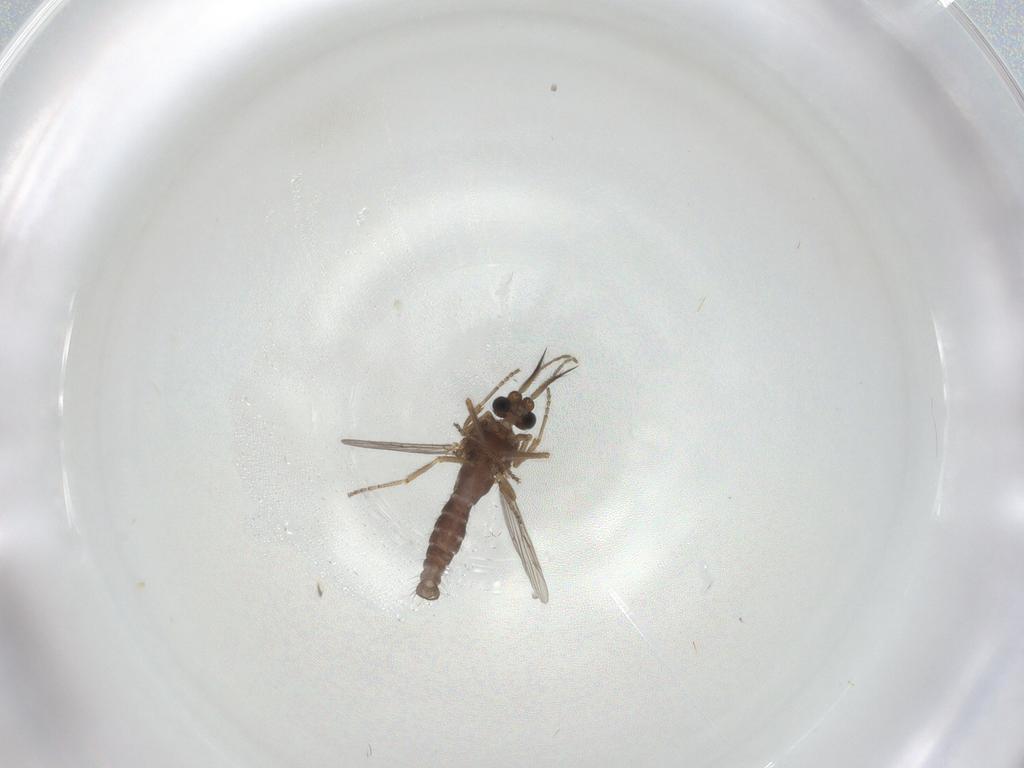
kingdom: Animalia
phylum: Arthropoda
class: Insecta
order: Diptera
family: Ceratopogonidae
